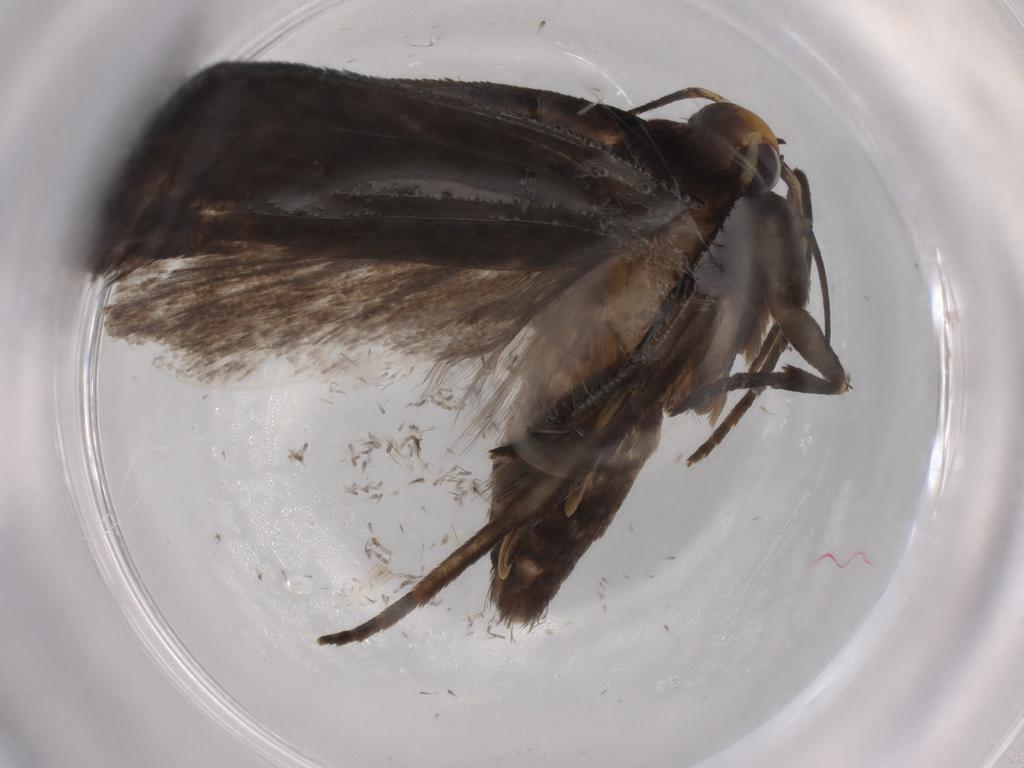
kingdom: Animalia
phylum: Arthropoda
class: Insecta
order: Lepidoptera
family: Gelechiidae
